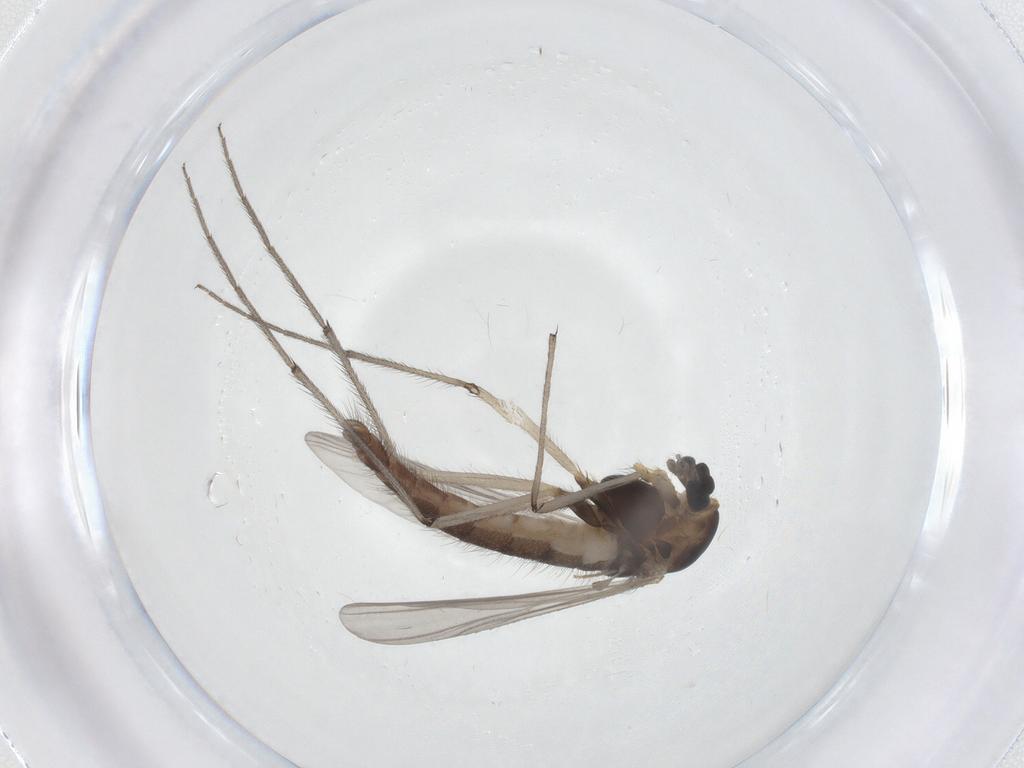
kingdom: Animalia
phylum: Arthropoda
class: Insecta
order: Diptera
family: Chironomidae
